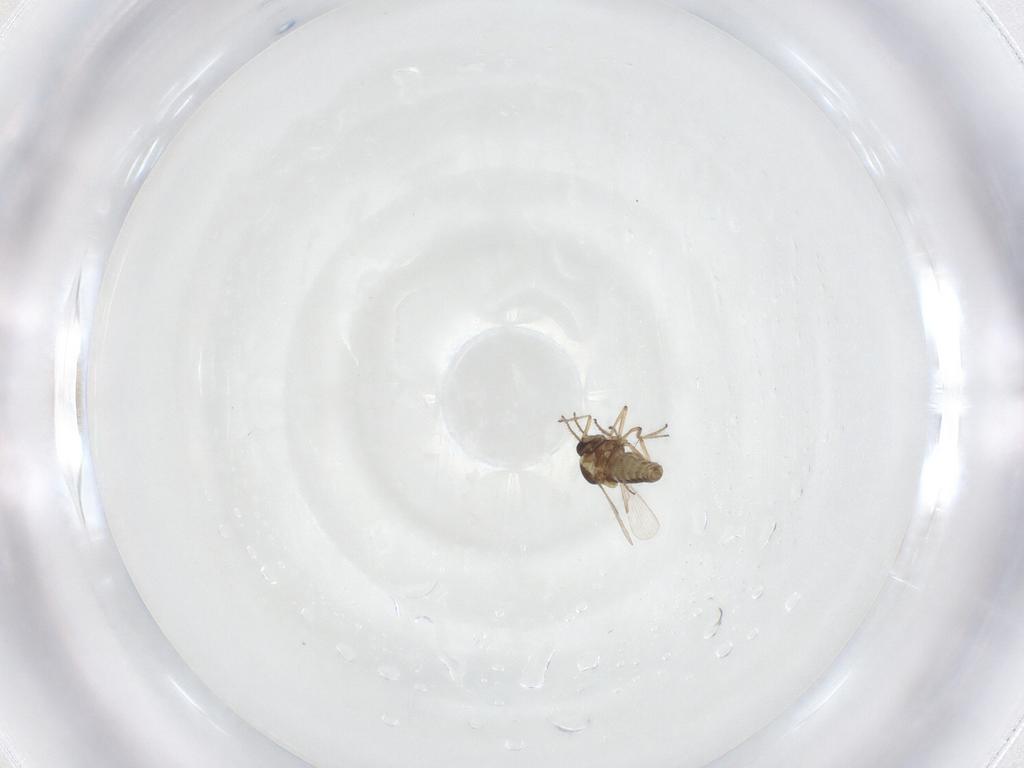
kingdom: Animalia
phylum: Arthropoda
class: Insecta
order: Diptera
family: Ceratopogonidae
